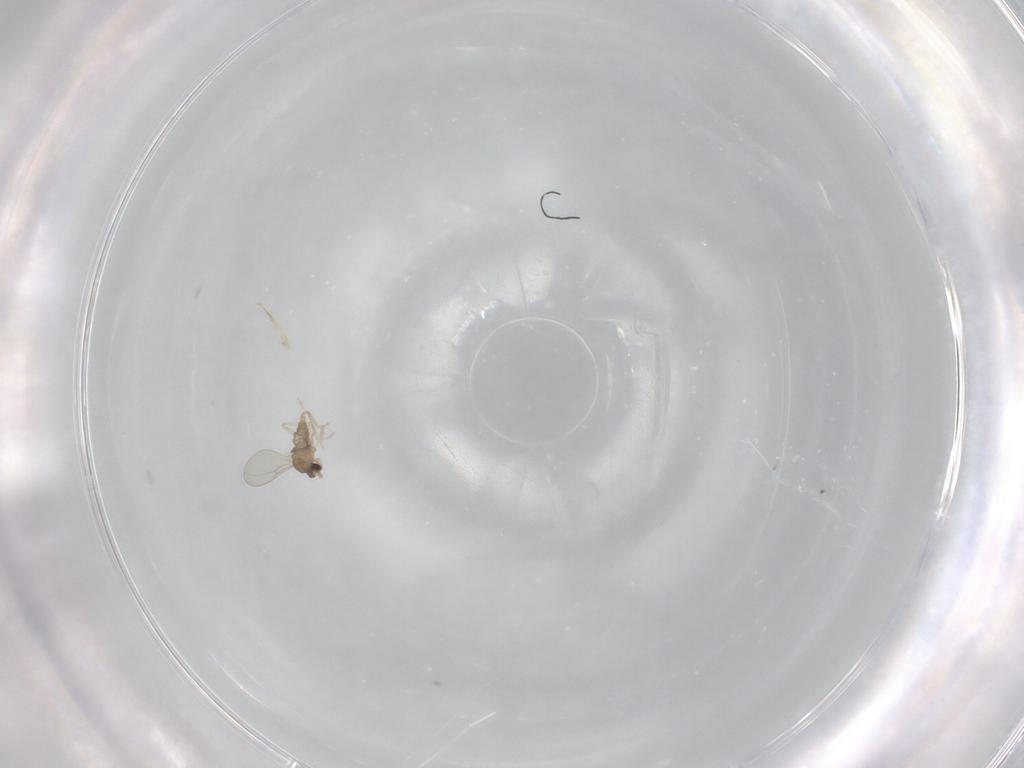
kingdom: Animalia
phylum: Arthropoda
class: Insecta
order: Diptera
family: Cecidomyiidae
